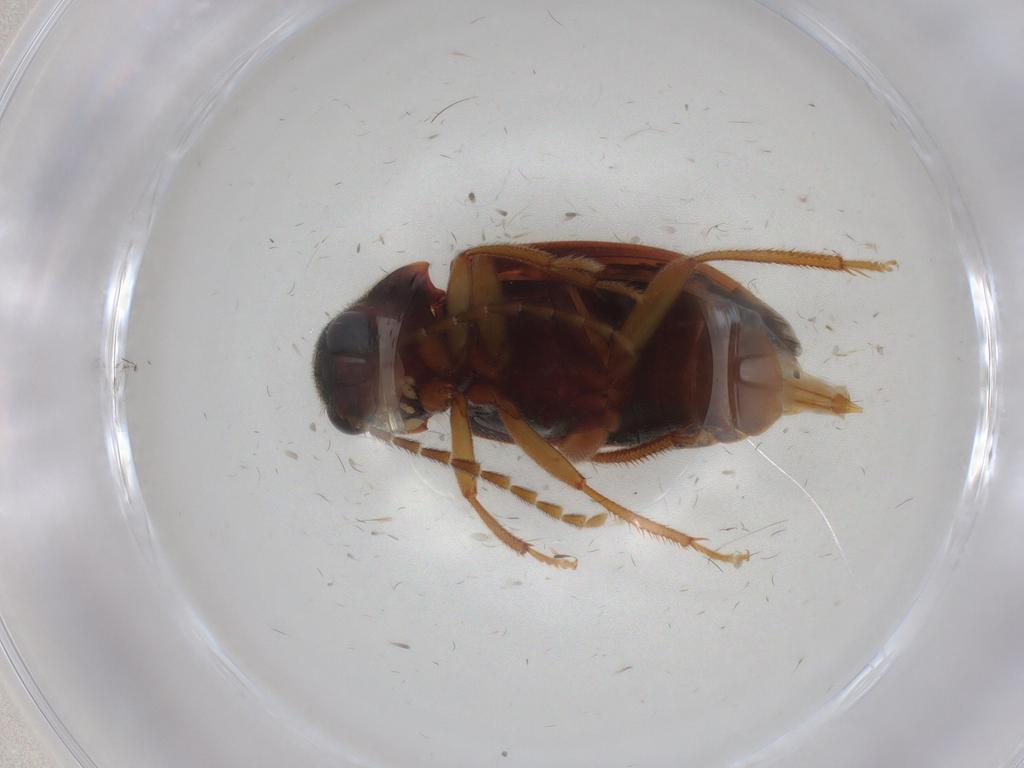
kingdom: Animalia
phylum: Arthropoda
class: Insecta
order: Coleoptera
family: Ptilodactylidae
